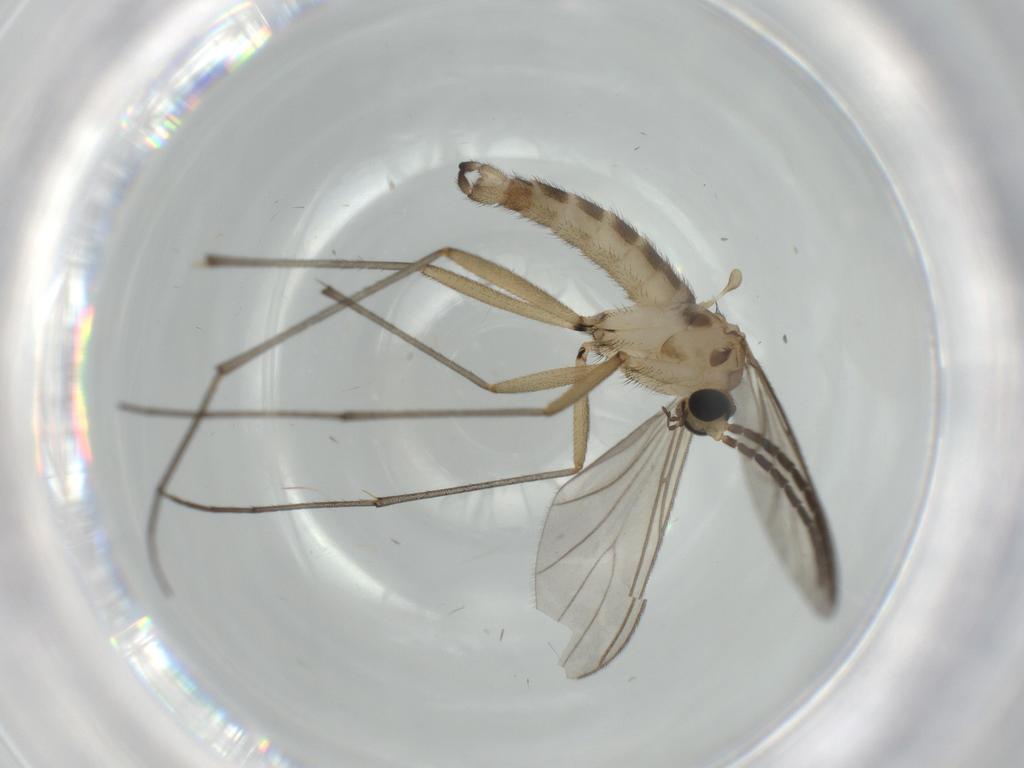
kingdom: Animalia
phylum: Arthropoda
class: Insecta
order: Diptera
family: Sciaridae
